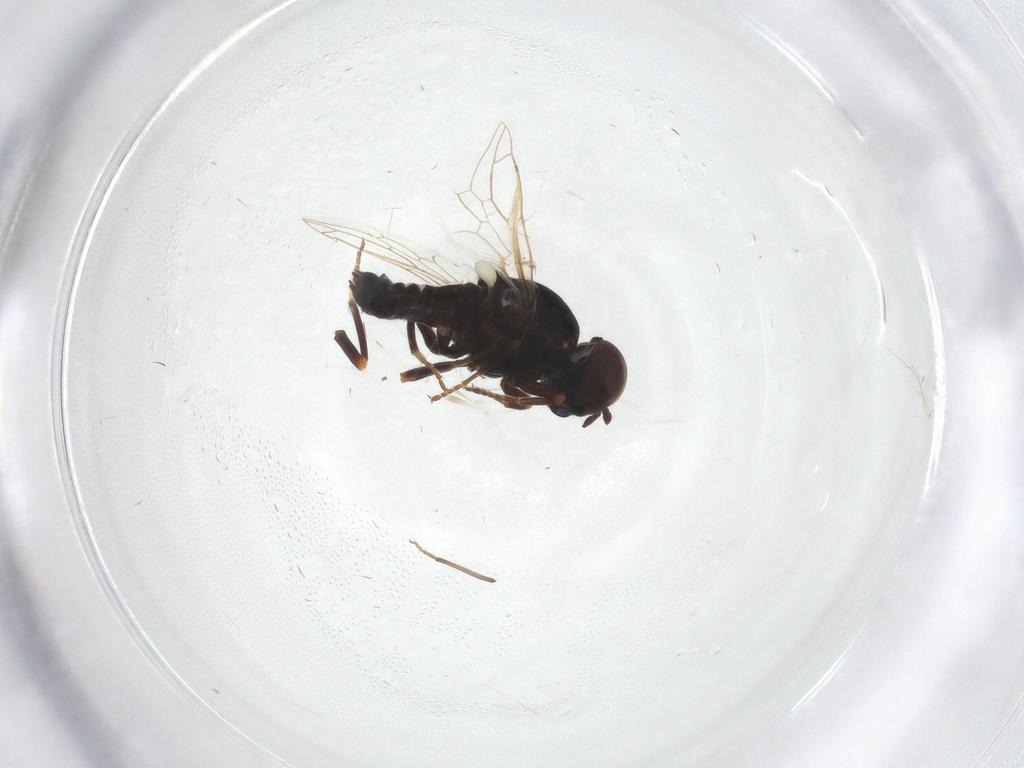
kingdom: Animalia
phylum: Arthropoda
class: Insecta
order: Diptera
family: Scenopinidae
